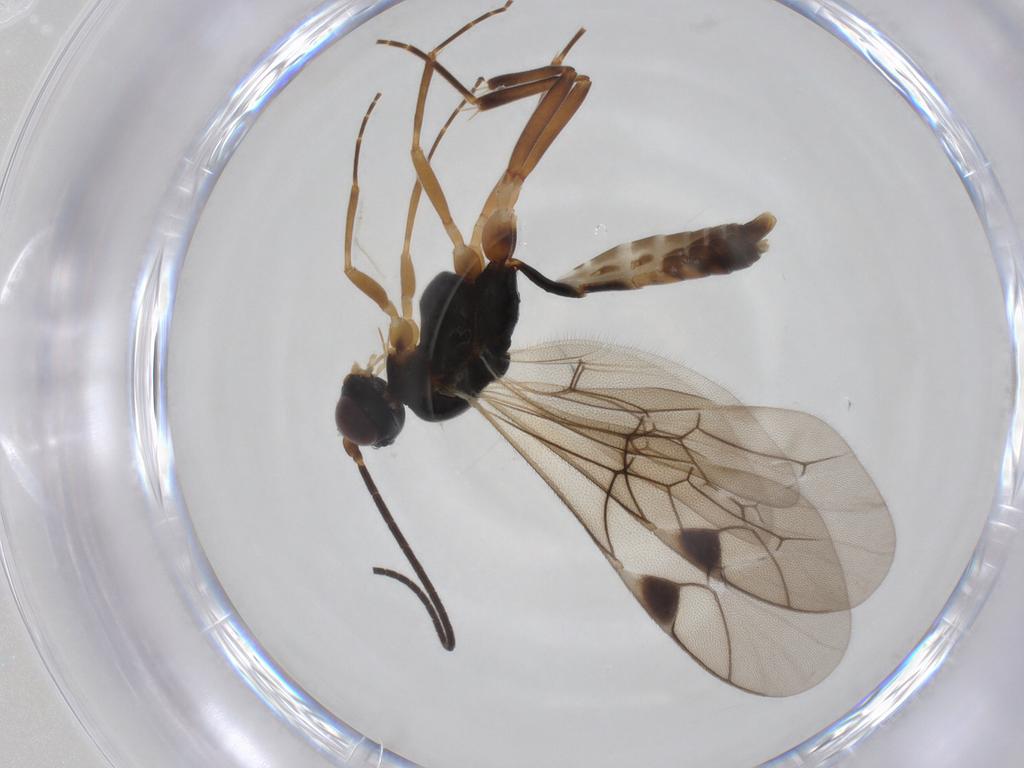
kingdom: Animalia
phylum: Arthropoda
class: Insecta
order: Hymenoptera
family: Ichneumonidae
